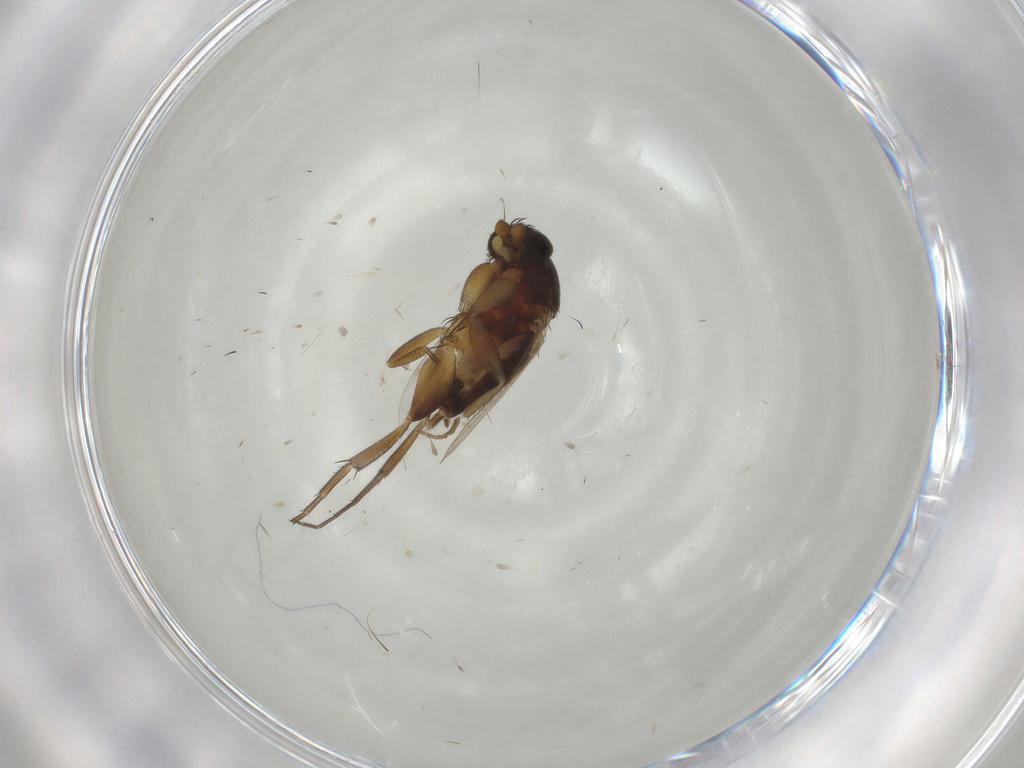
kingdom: Animalia
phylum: Arthropoda
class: Insecta
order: Diptera
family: Phoridae
